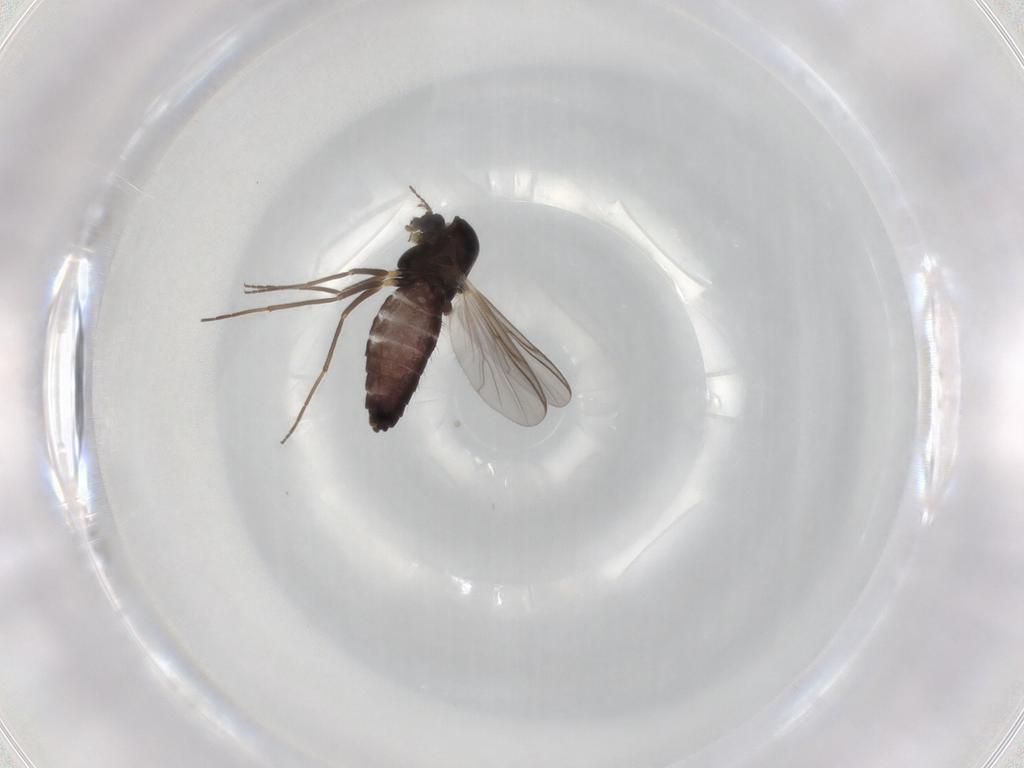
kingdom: Animalia
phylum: Arthropoda
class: Insecta
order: Diptera
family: Chironomidae
